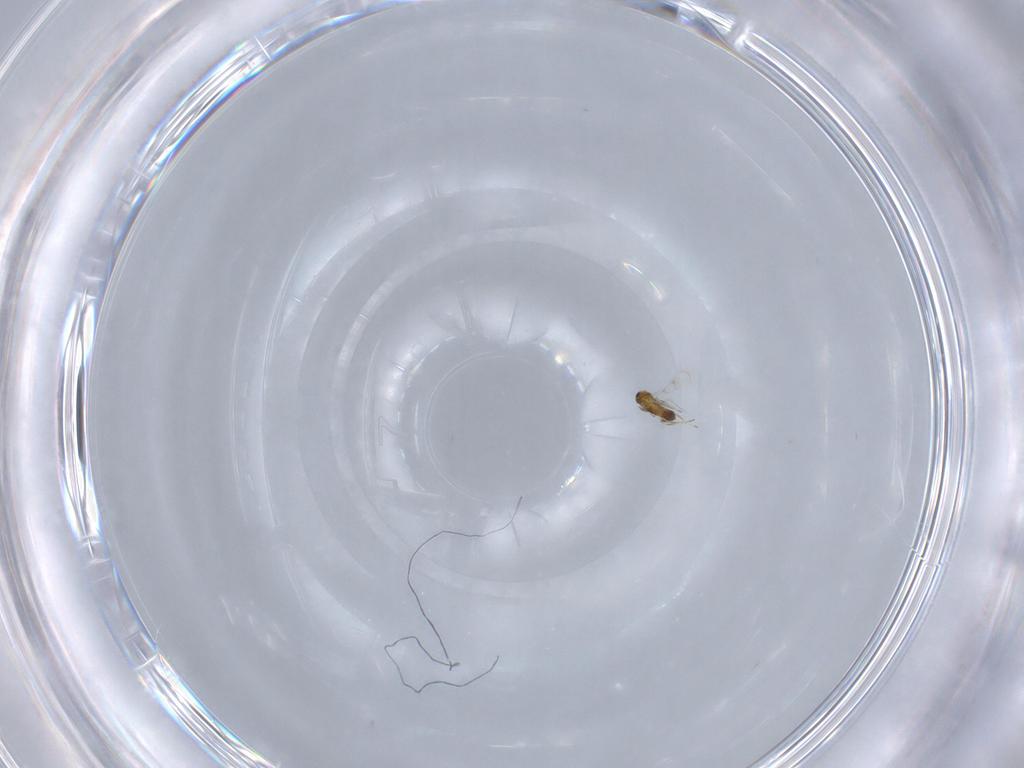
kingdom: Animalia
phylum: Arthropoda
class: Insecta
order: Hymenoptera
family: Trichogrammatidae
